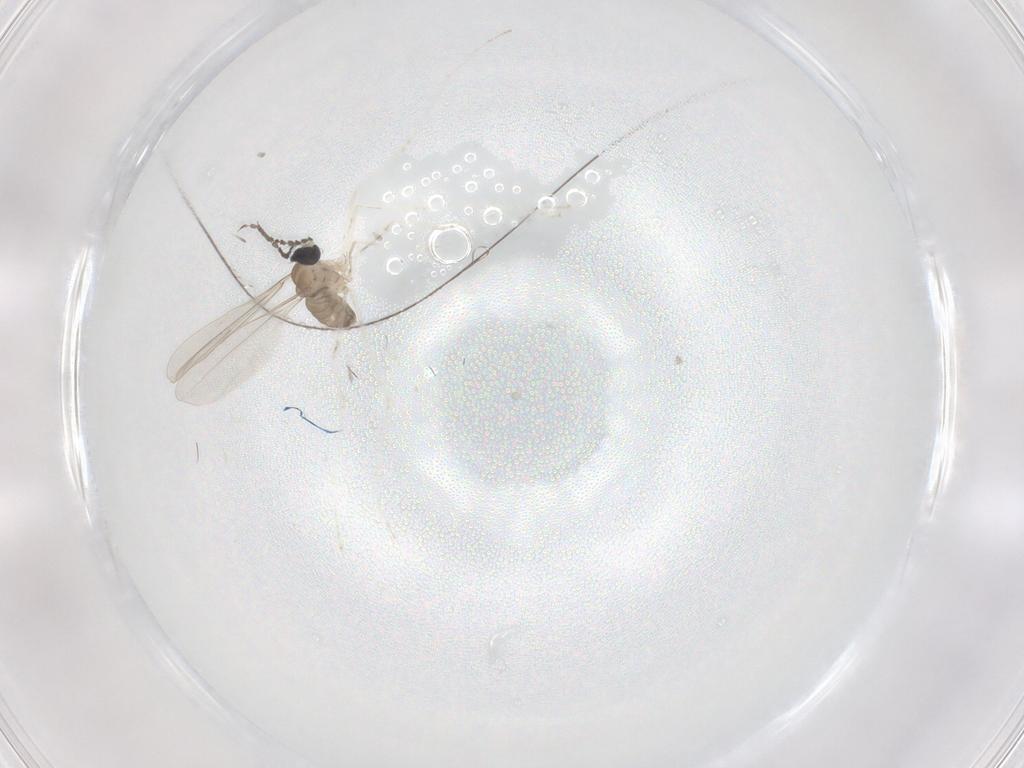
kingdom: Animalia
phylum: Arthropoda
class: Insecta
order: Diptera
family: Cecidomyiidae
